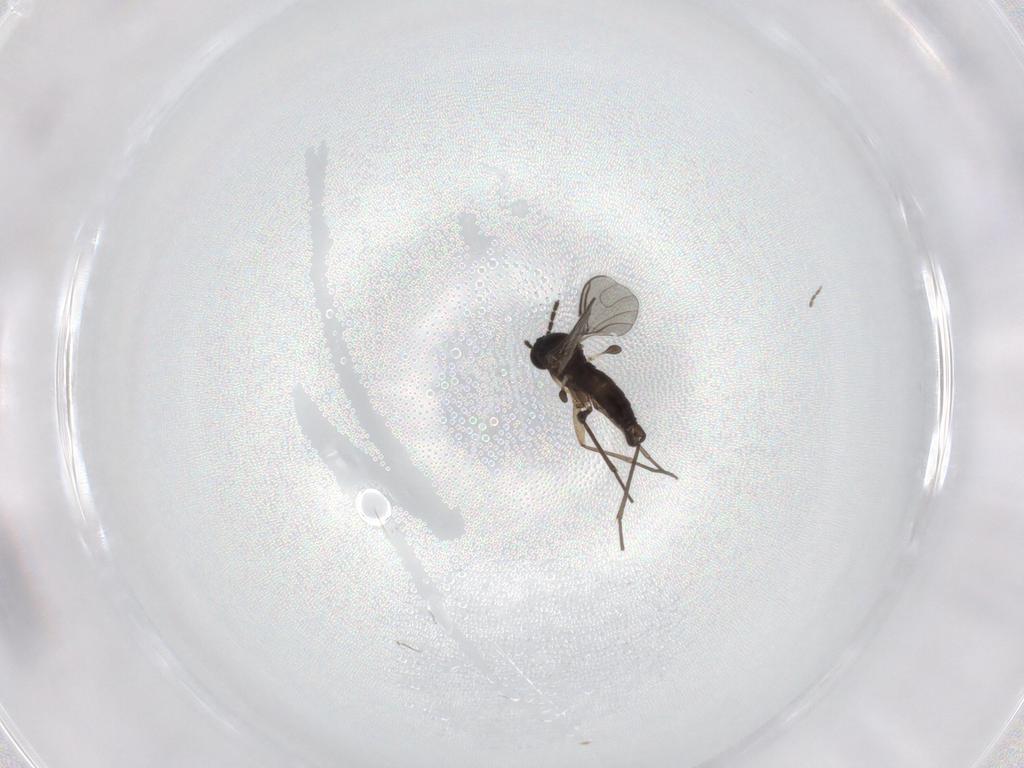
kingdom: Animalia
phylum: Arthropoda
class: Insecta
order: Diptera
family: Sciaridae
